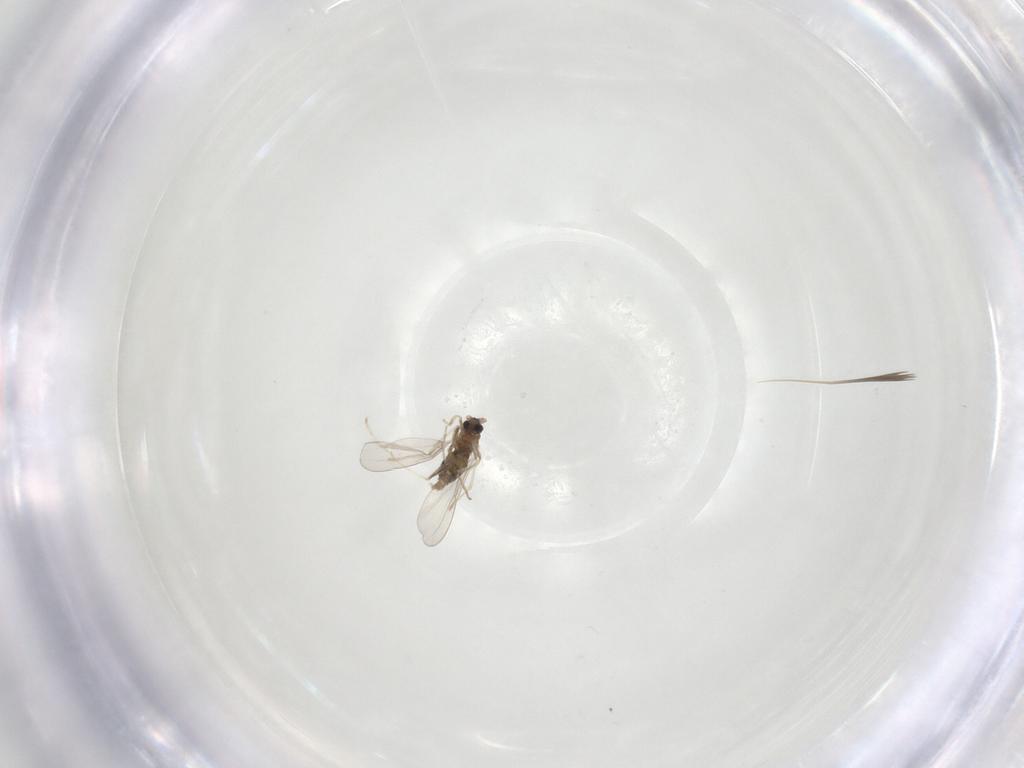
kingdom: Animalia
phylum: Arthropoda
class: Insecta
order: Diptera
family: Cecidomyiidae
